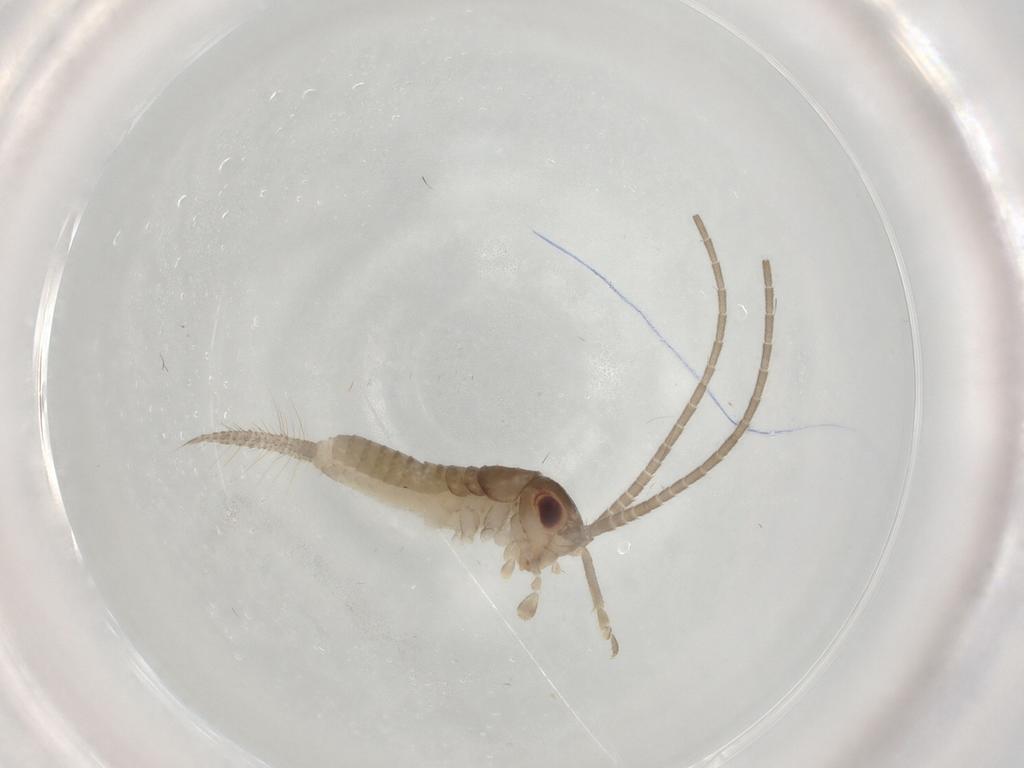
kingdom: Animalia
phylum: Arthropoda
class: Insecta
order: Orthoptera
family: Gryllidae
